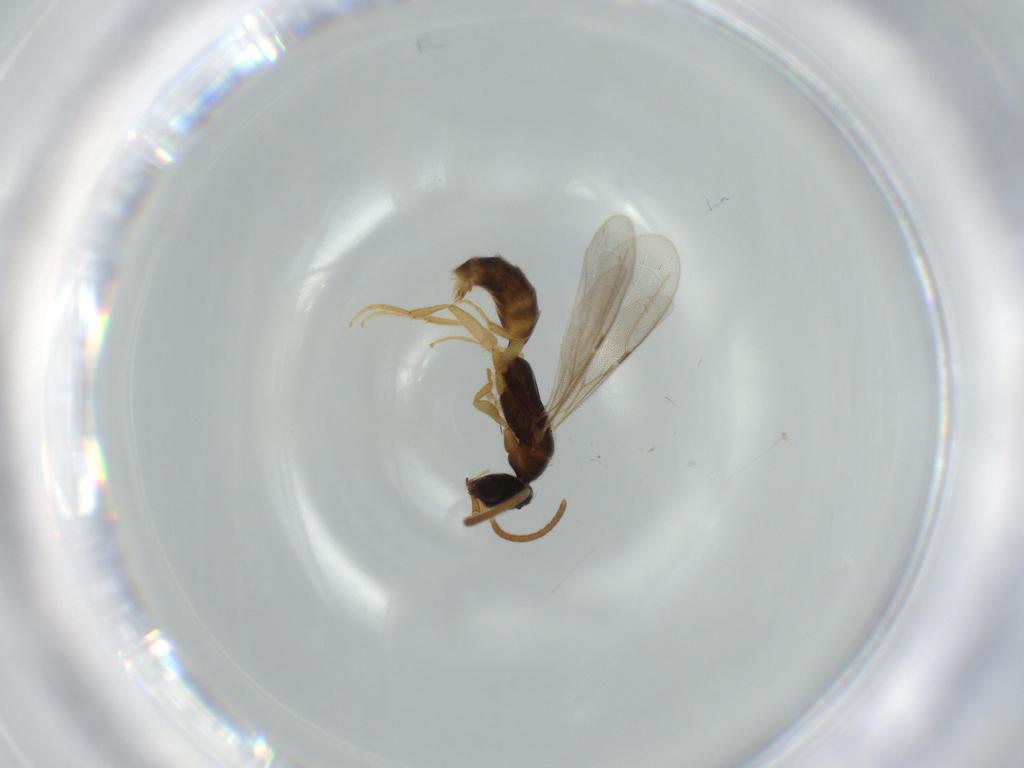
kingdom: Animalia
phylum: Arthropoda
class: Insecta
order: Hymenoptera
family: Bethylidae
